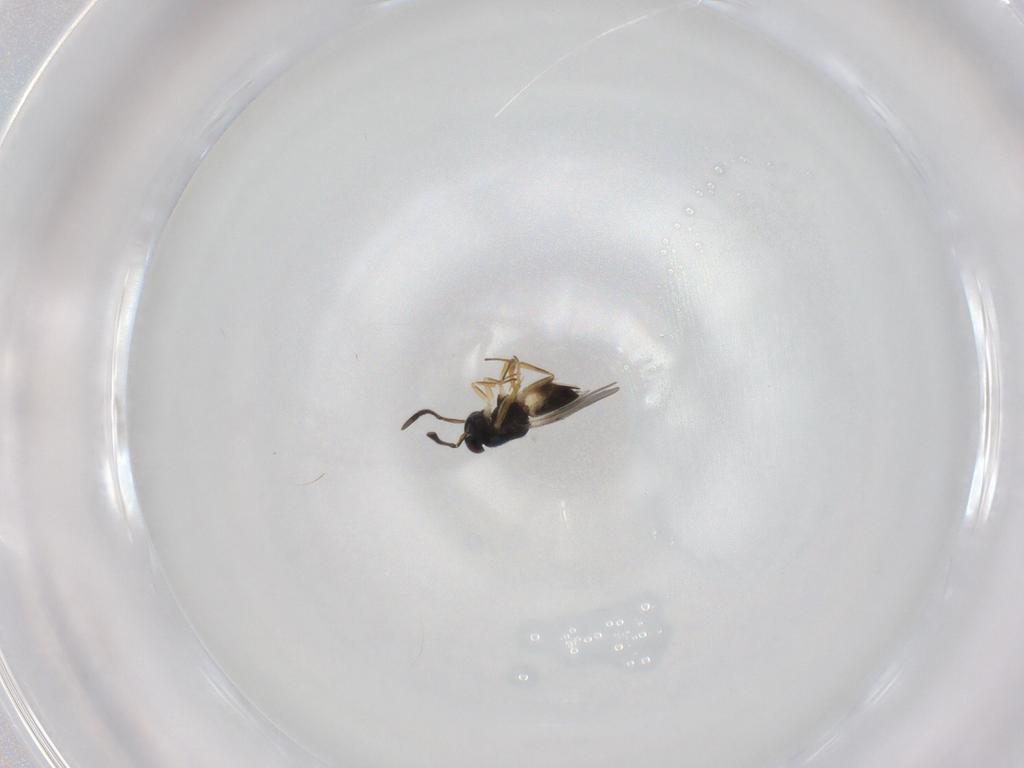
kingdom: Animalia
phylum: Arthropoda
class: Insecta
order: Hymenoptera
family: Encyrtidae
